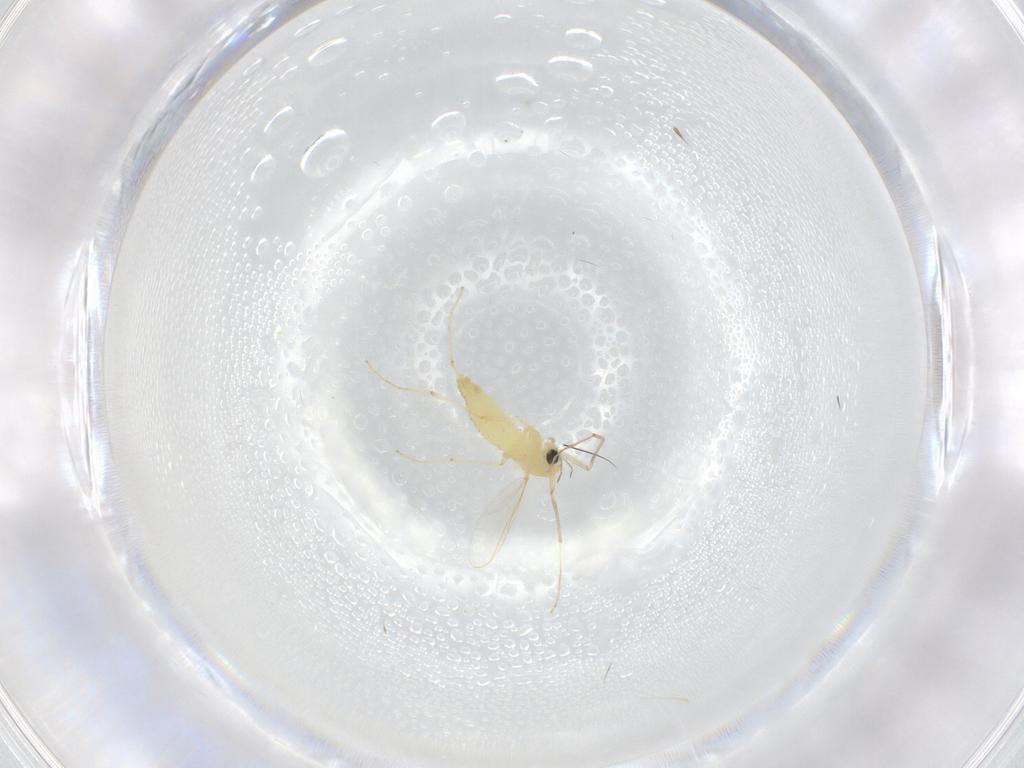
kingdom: Animalia
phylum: Arthropoda
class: Insecta
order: Diptera
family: Chironomidae
